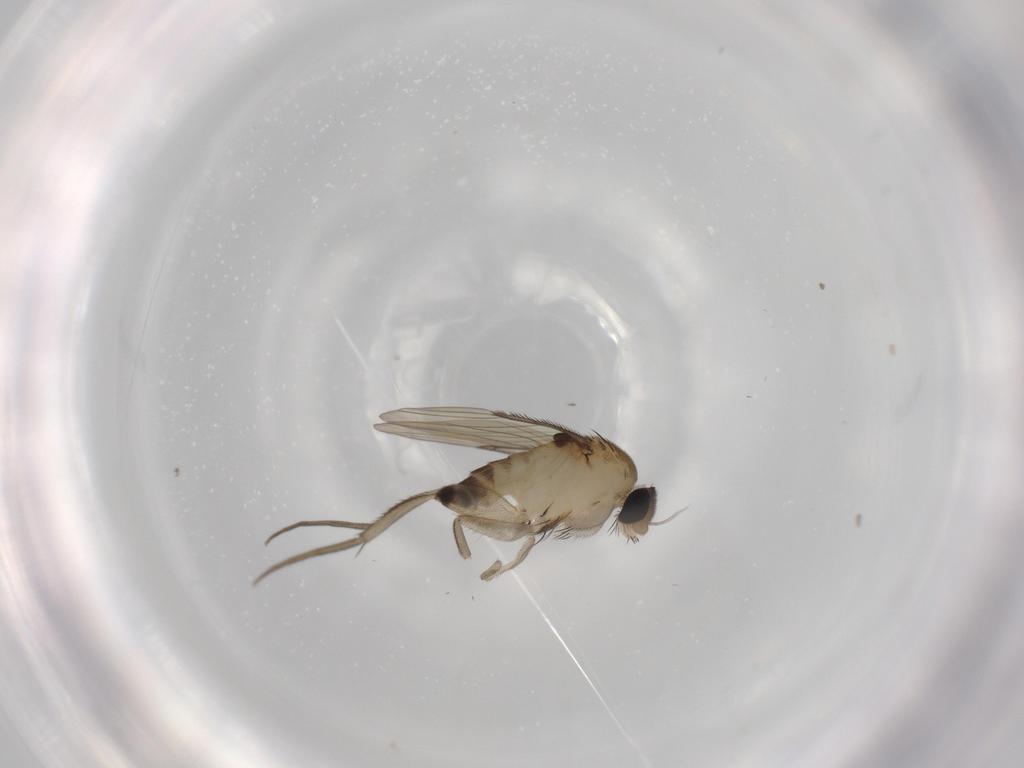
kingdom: Animalia
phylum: Arthropoda
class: Insecta
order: Diptera
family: Phoridae
